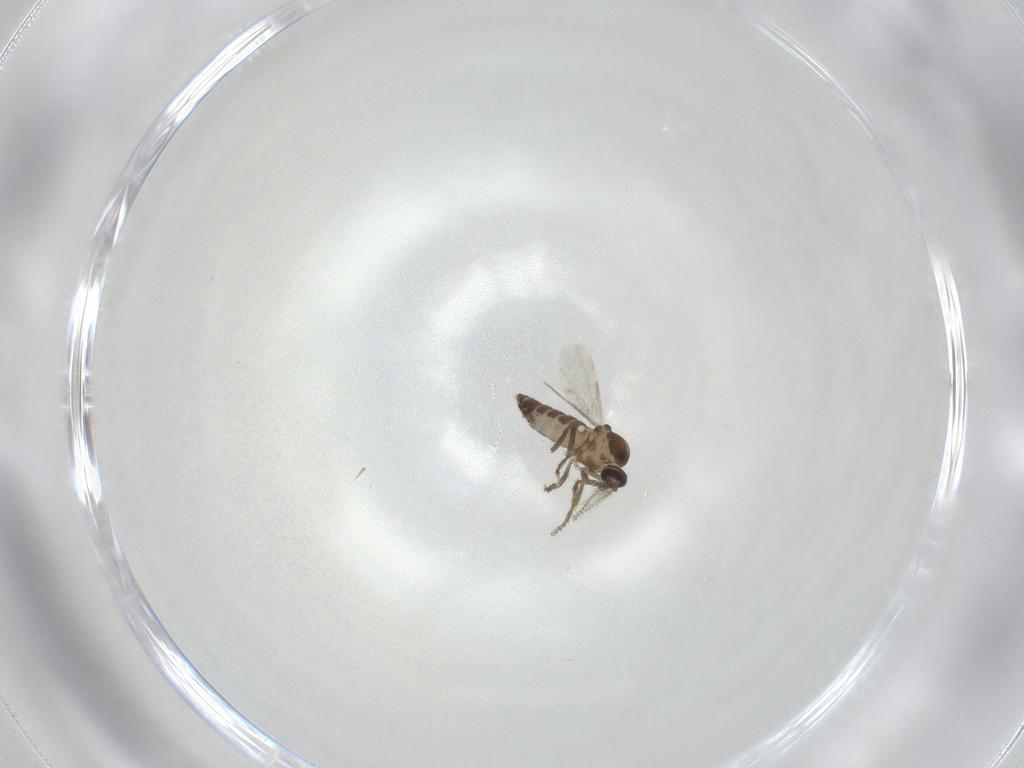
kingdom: Animalia
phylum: Arthropoda
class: Insecta
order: Diptera
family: Ceratopogonidae
